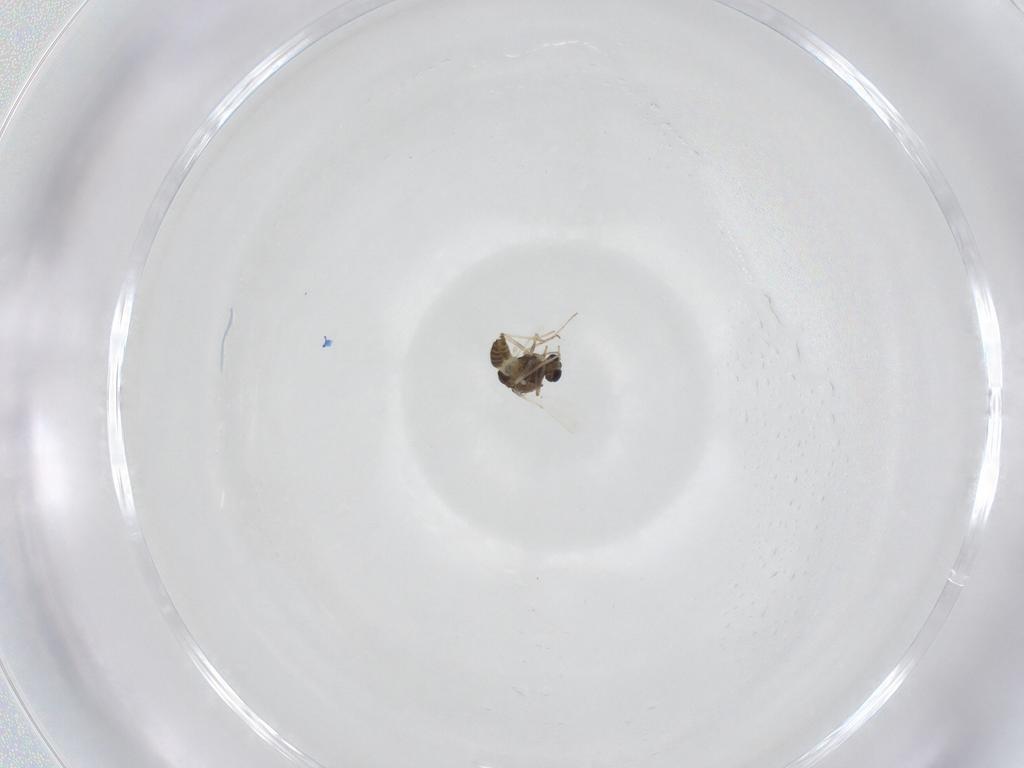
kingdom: Animalia
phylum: Arthropoda
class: Insecta
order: Diptera
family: Chironomidae
